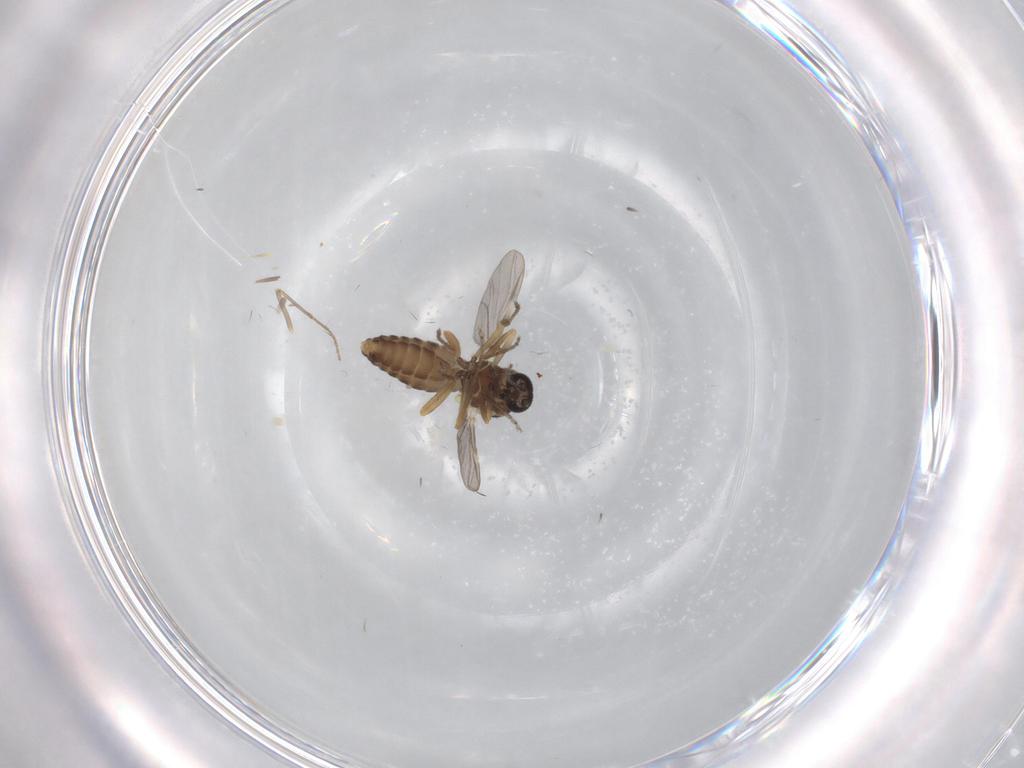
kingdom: Animalia
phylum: Arthropoda
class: Insecta
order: Diptera
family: Ceratopogonidae
